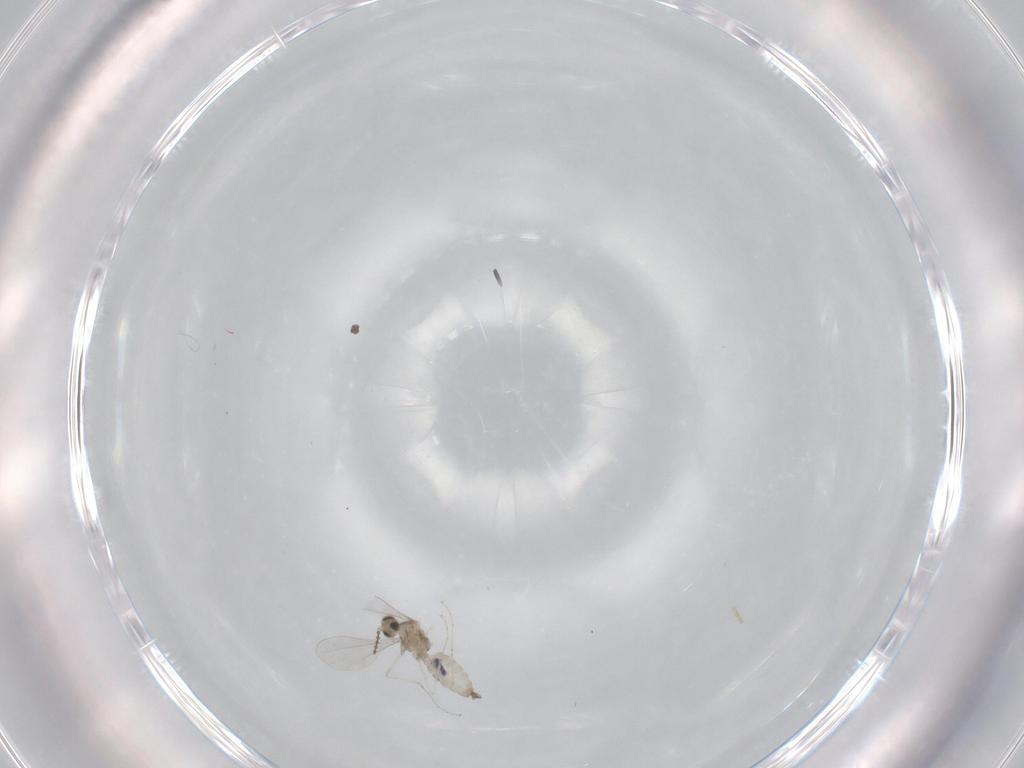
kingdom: Animalia
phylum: Arthropoda
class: Insecta
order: Diptera
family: Cecidomyiidae
